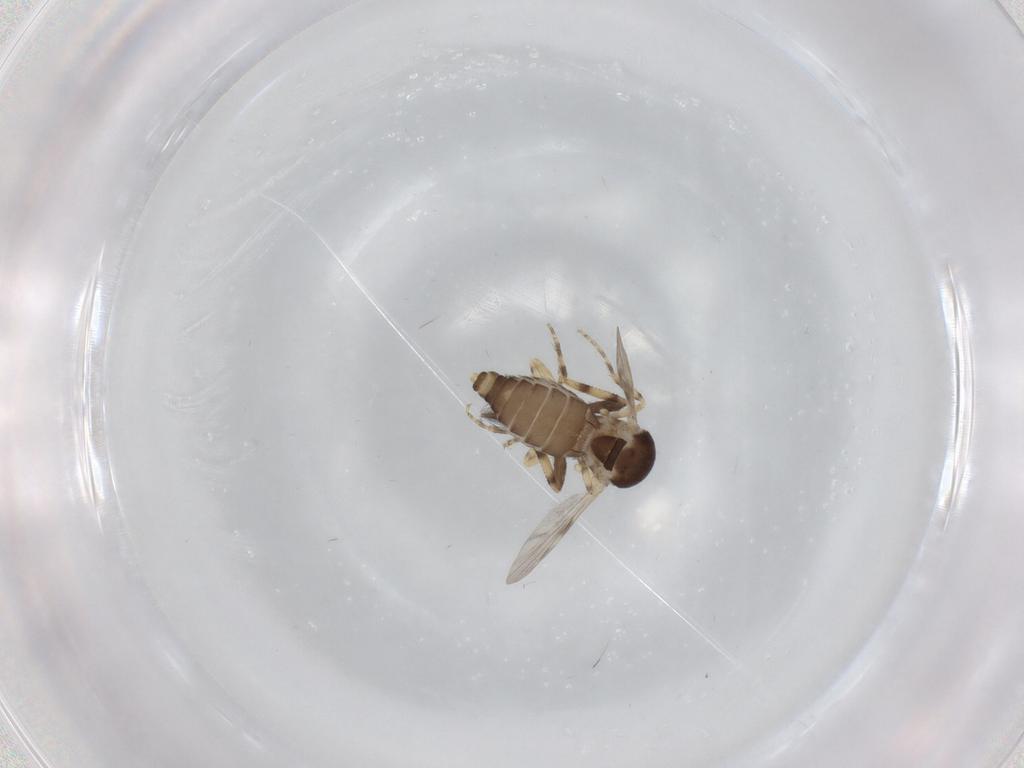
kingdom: Animalia
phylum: Arthropoda
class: Insecta
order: Diptera
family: Ceratopogonidae
